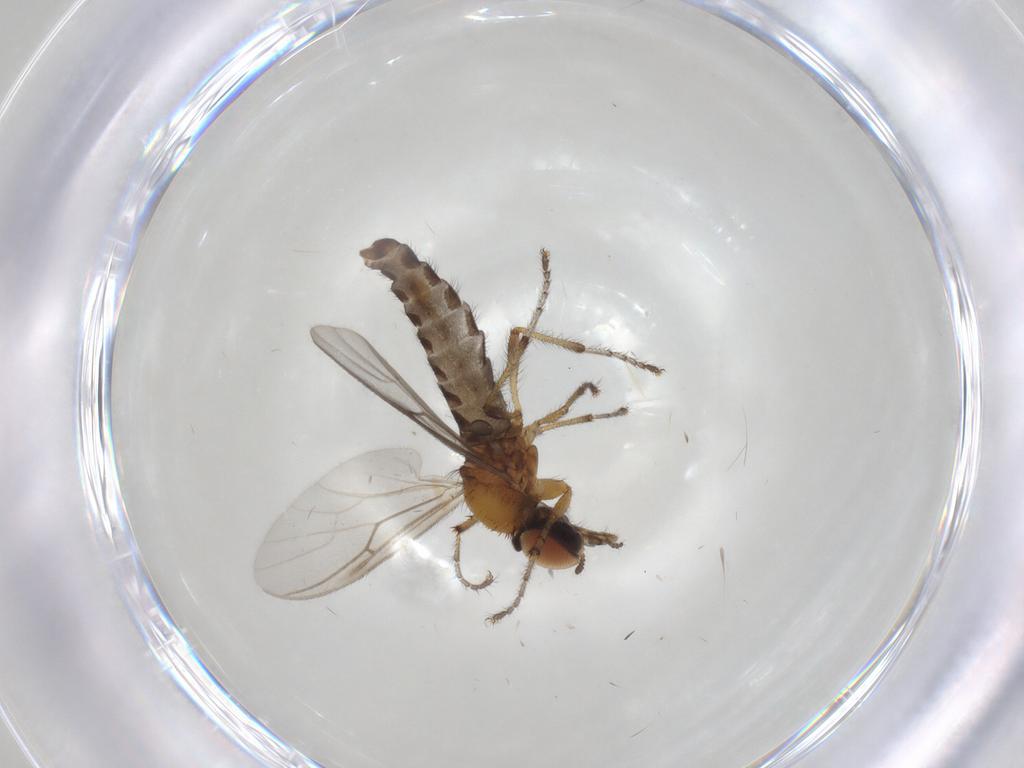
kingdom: Animalia
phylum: Arthropoda
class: Insecta
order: Diptera
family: Bibionidae
